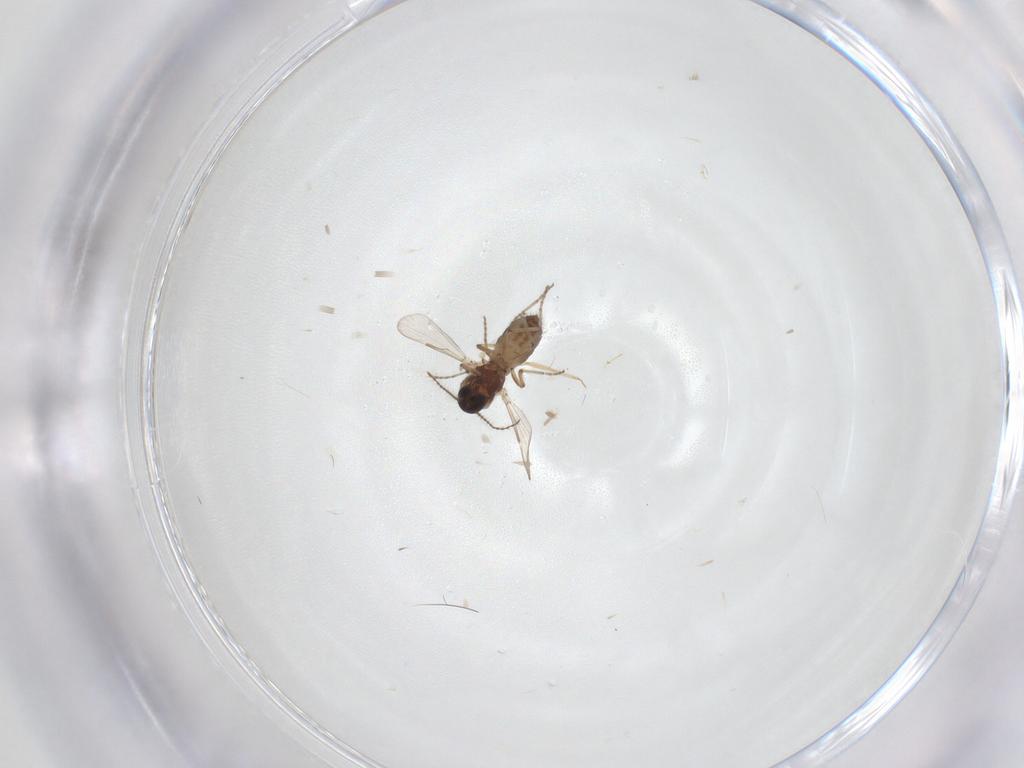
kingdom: Animalia
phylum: Arthropoda
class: Insecta
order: Diptera
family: Ceratopogonidae
